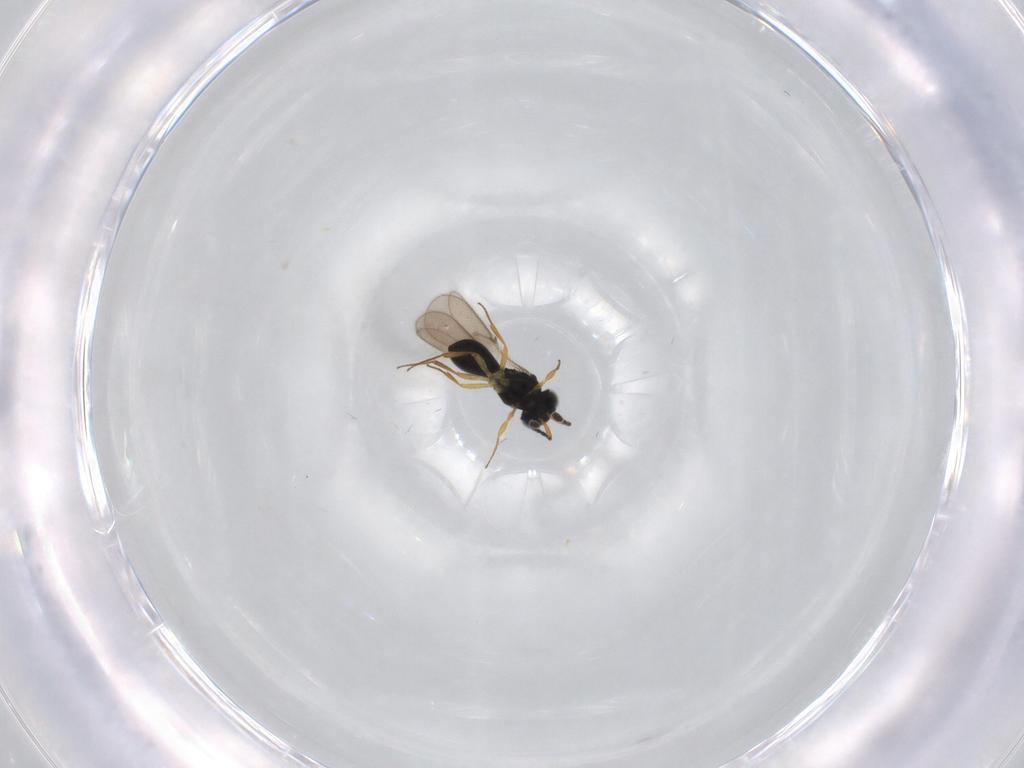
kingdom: Animalia
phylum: Arthropoda
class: Insecta
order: Hymenoptera
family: Scelionidae
